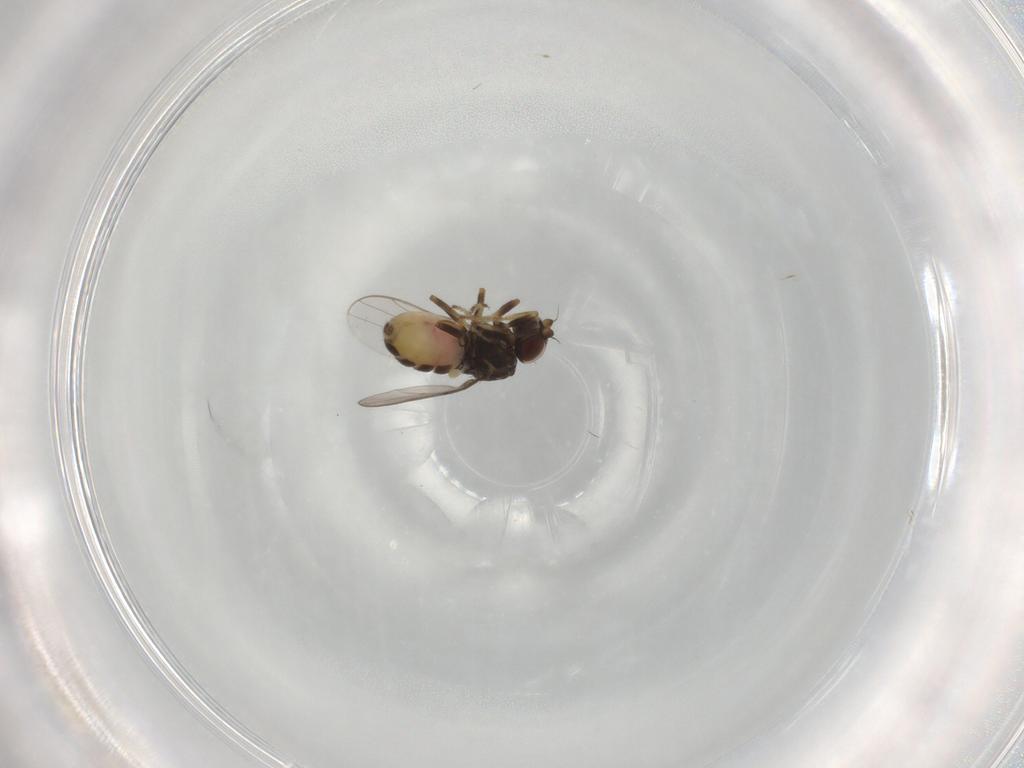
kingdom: Animalia
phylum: Arthropoda
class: Insecta
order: Diptera
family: Chloropidae
